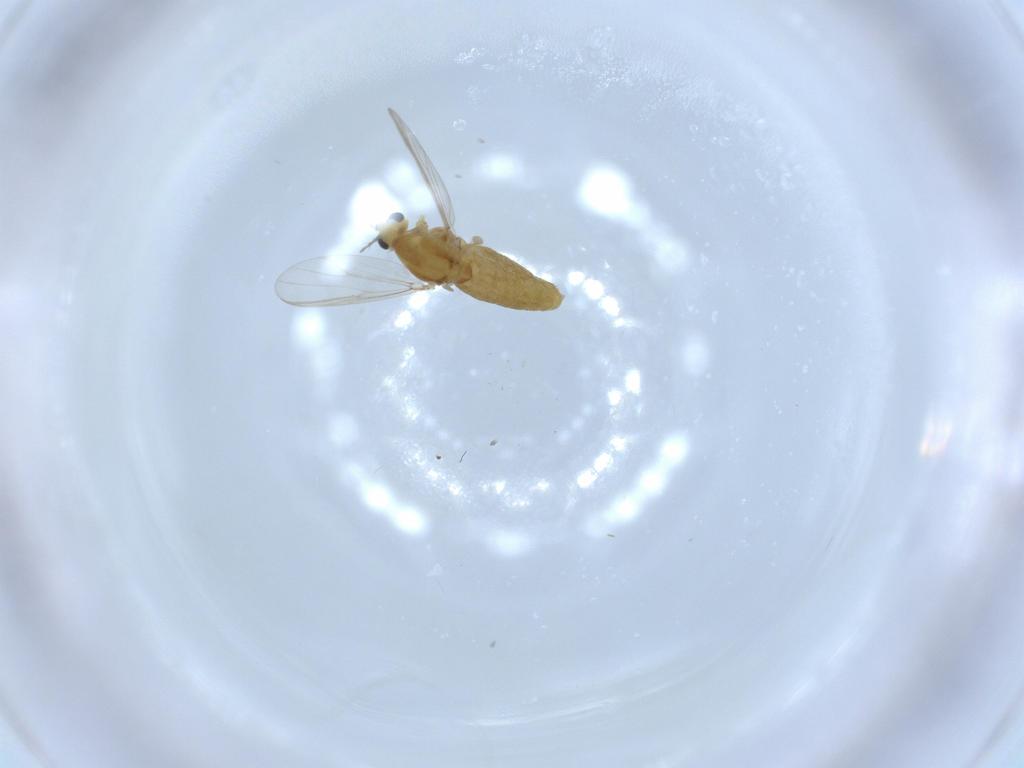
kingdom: Animalia
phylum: Arthropoda
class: Insecta
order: Diptera
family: Chironomidae
